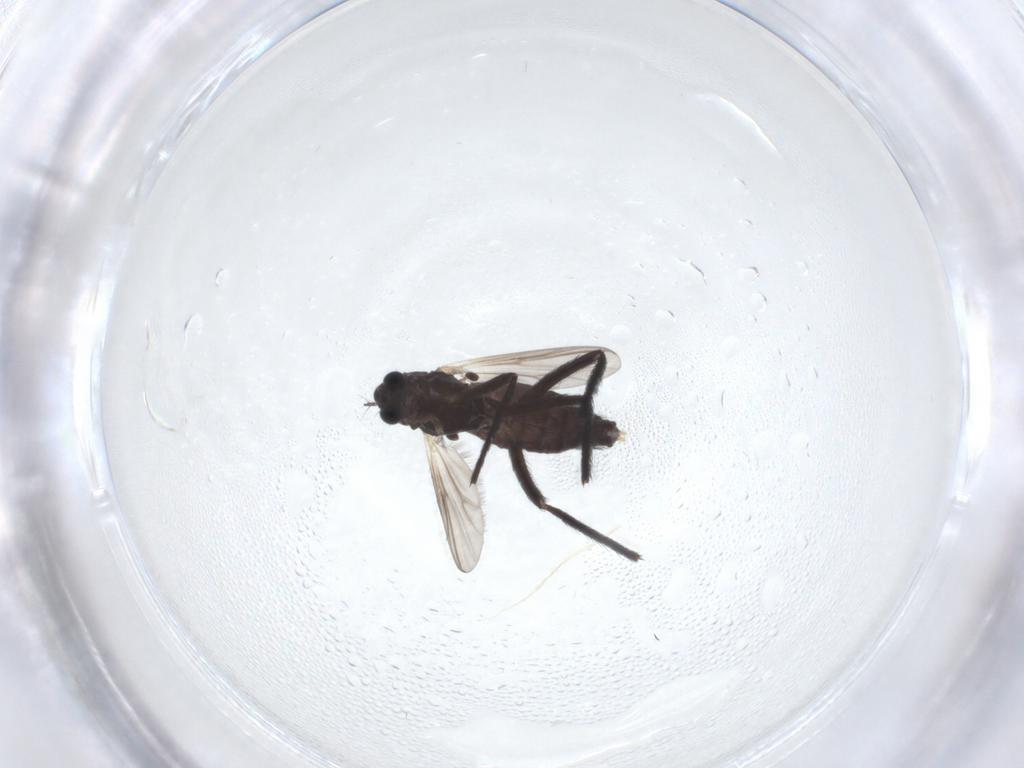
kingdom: Animalia
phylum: Arthropoda
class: Insecta
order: Diptera
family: Chironomidae
